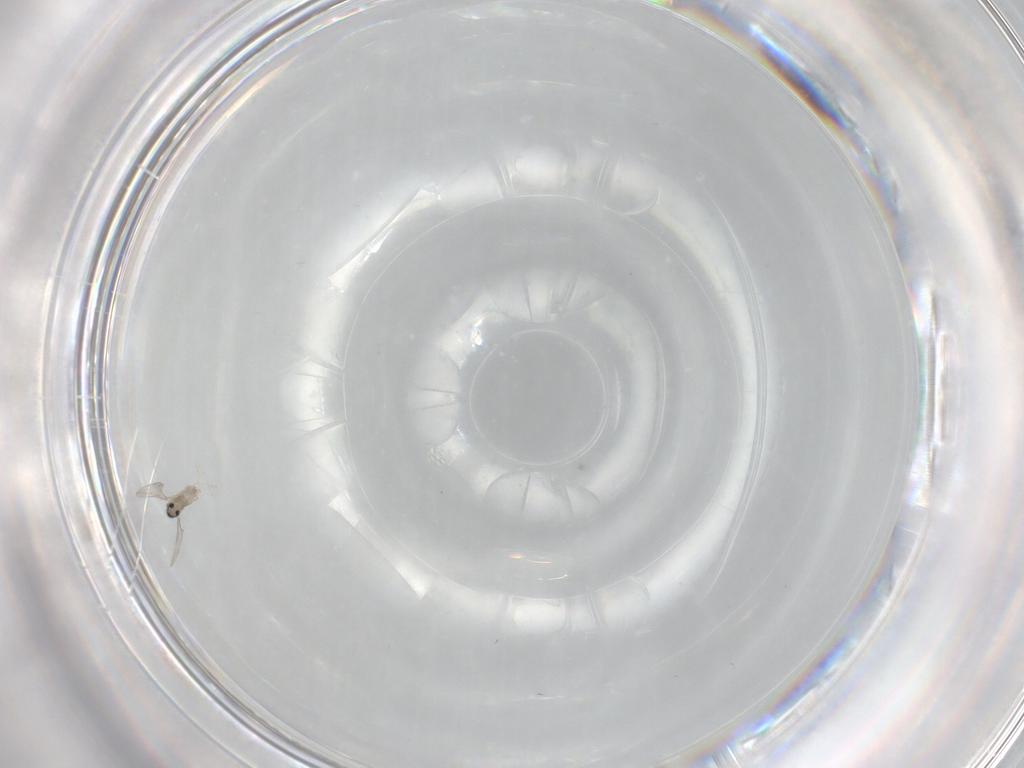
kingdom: Animalia
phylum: Arthropoda
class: Insecta
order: Diptera
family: Cecidomyiidae
